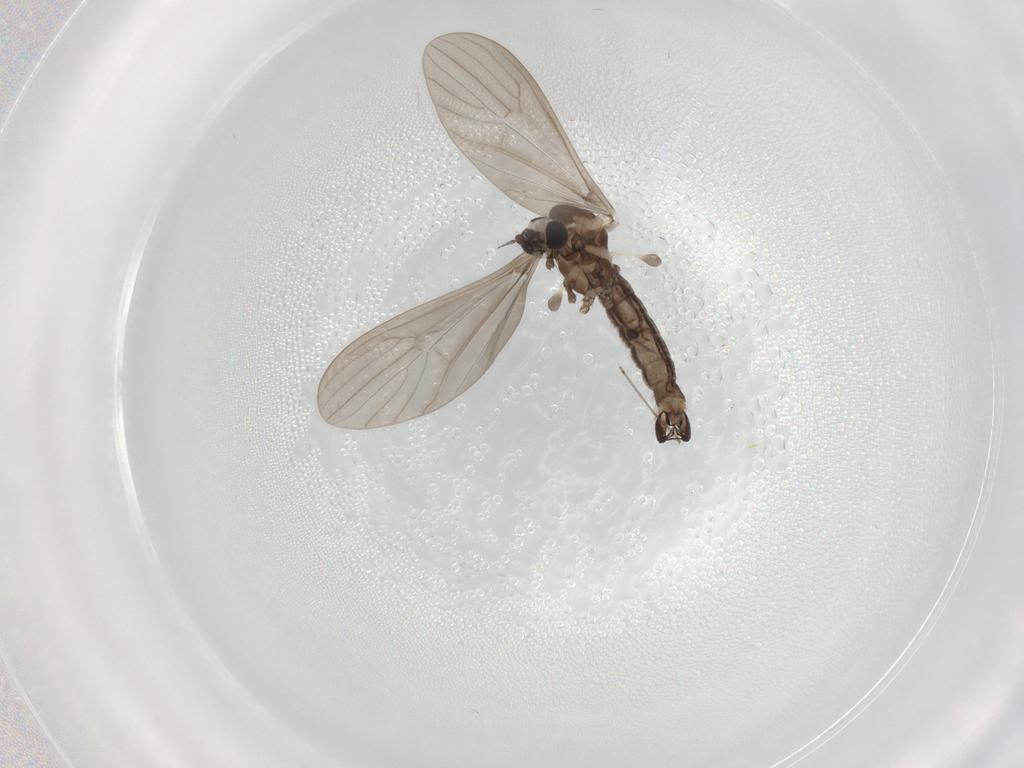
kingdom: Animalia
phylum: Arthropoda
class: Insecta
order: Diptera
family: Limoniidae
